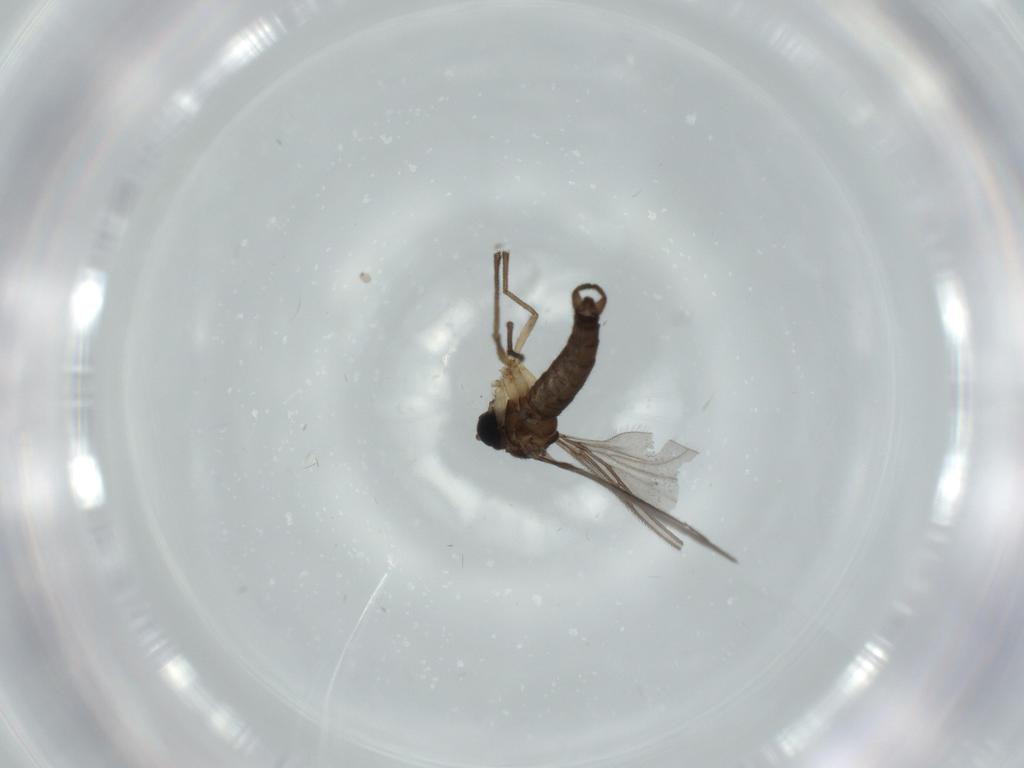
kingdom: Animalia
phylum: Arthropoda
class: Insecta
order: Diptera
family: Sciaridae
